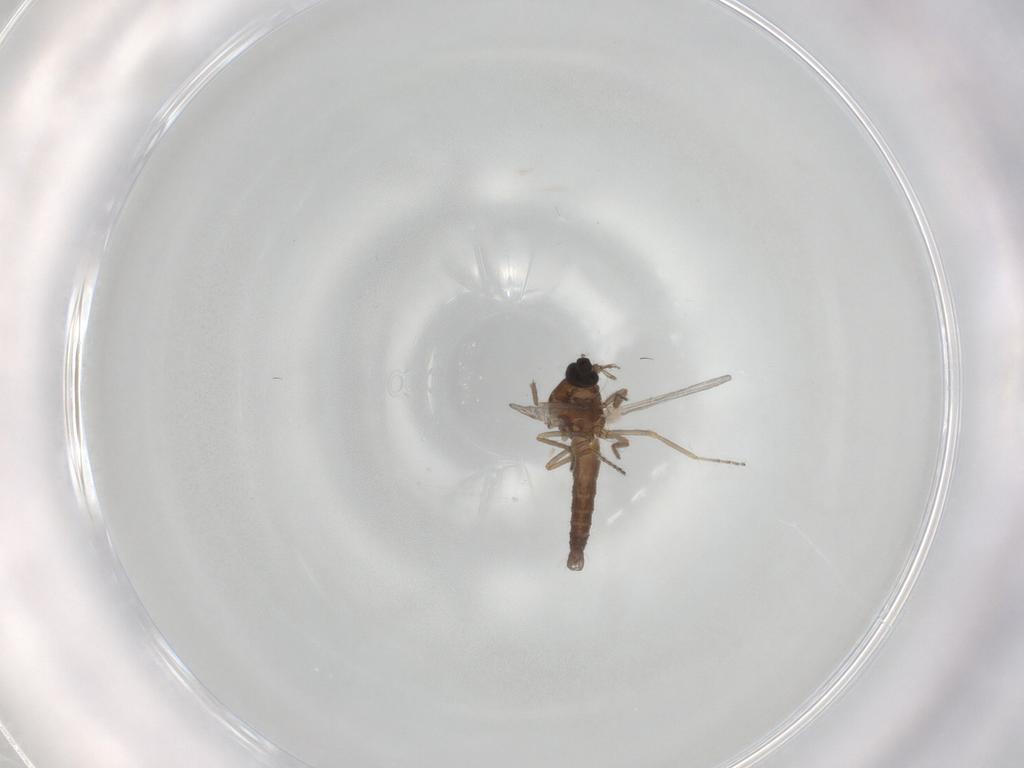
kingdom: Animalia
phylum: Arthropoda
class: Insecta
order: Diptera
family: Ceratopogonidae
